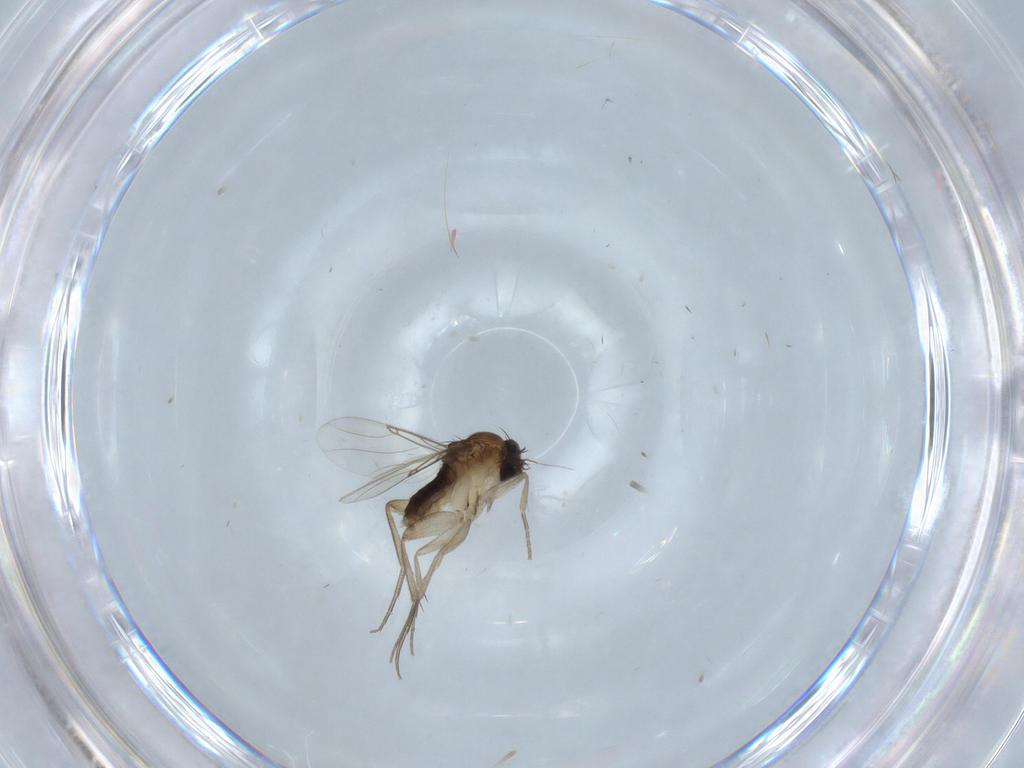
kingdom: Animalia
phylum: Arthropoda
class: Insecta
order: Diptera
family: Phoridae
